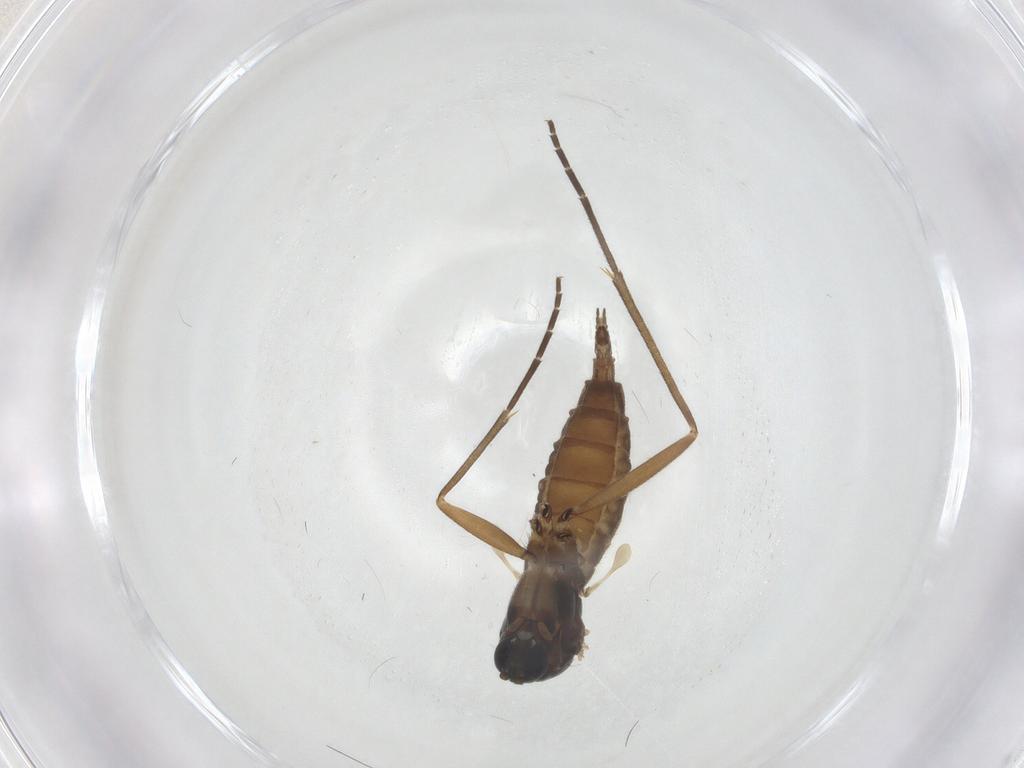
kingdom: Animalia
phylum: Arthropoda
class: Insecta
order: Diptera
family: Sciaridae
